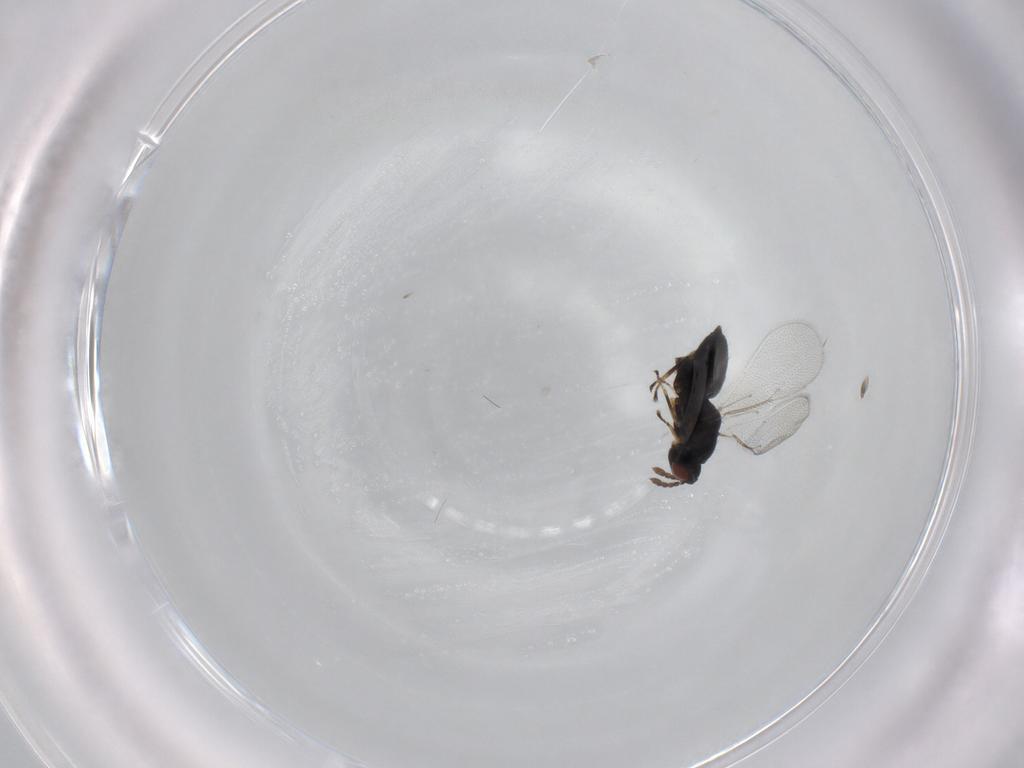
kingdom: Animalia
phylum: Arthropoda
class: Insecta
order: Hymenoptera
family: Eulophidae
